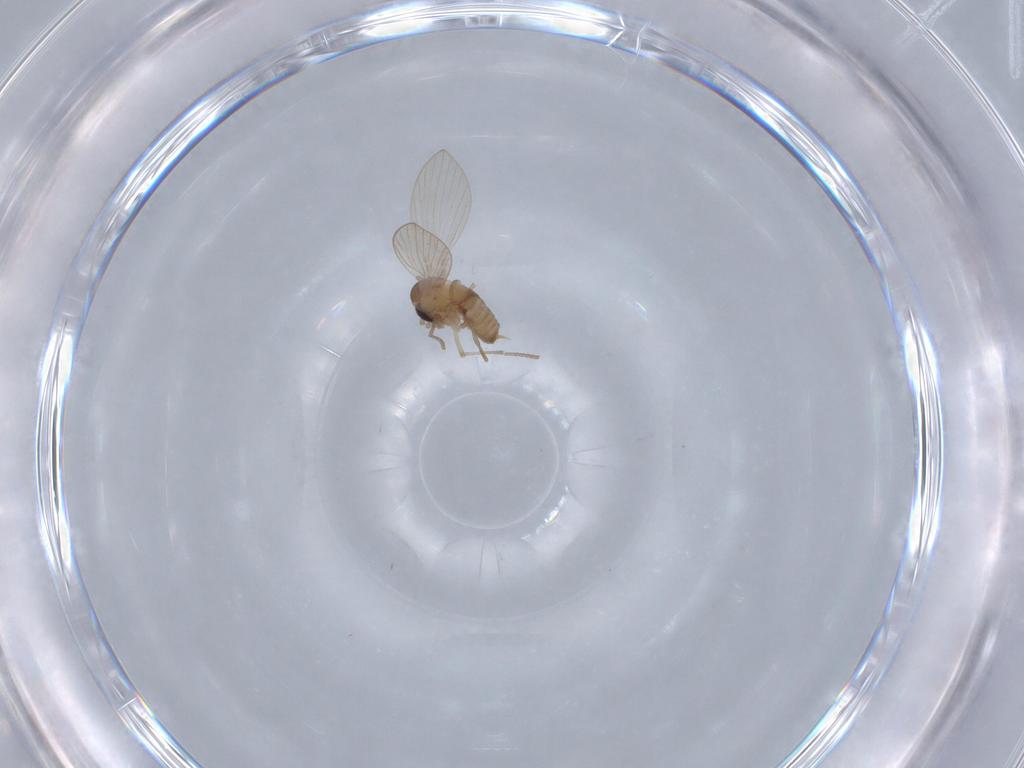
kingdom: Animalia
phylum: Arthropoda
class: Insecta
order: Diptera
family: Psychodidae
